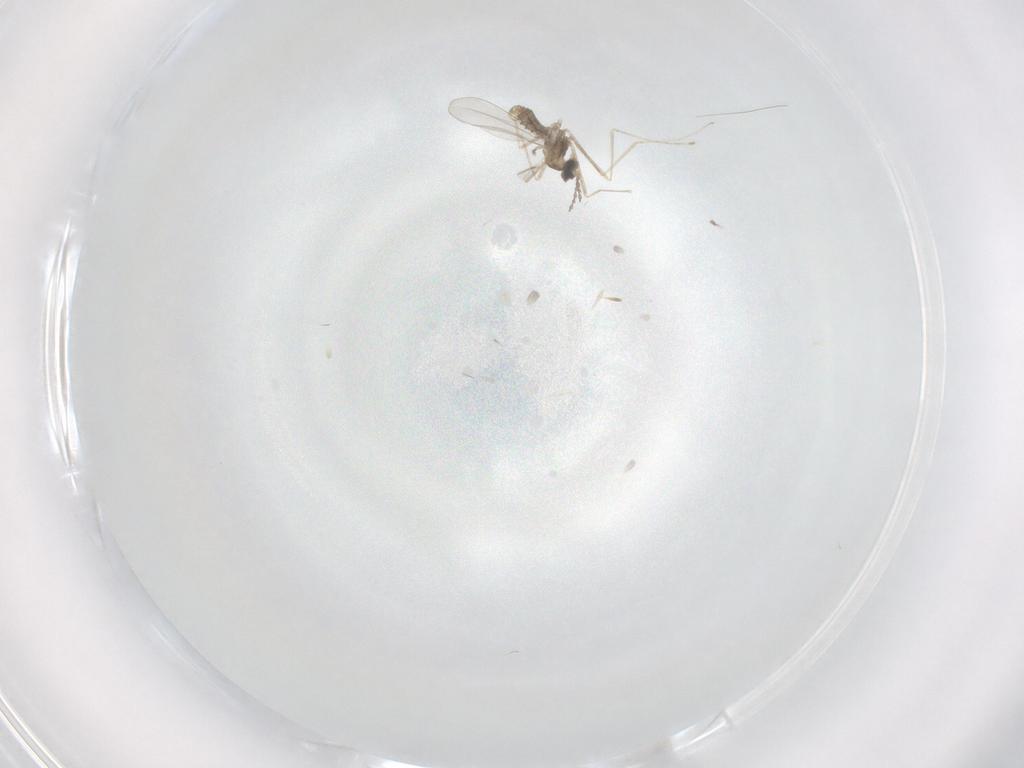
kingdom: Animalia
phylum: Arthropoda
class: Insecta
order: Diptera
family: Cecidomyiidae
